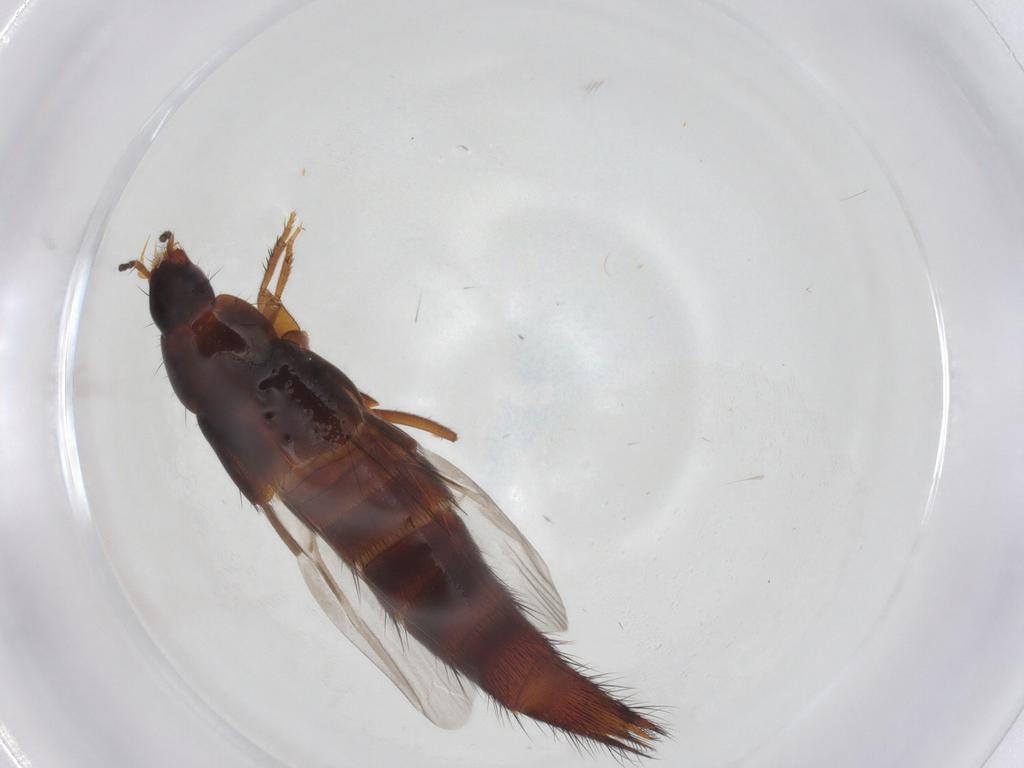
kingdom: Animalia
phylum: Arthropoda
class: Insecta
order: Coleoptera
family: Staphylinidae
